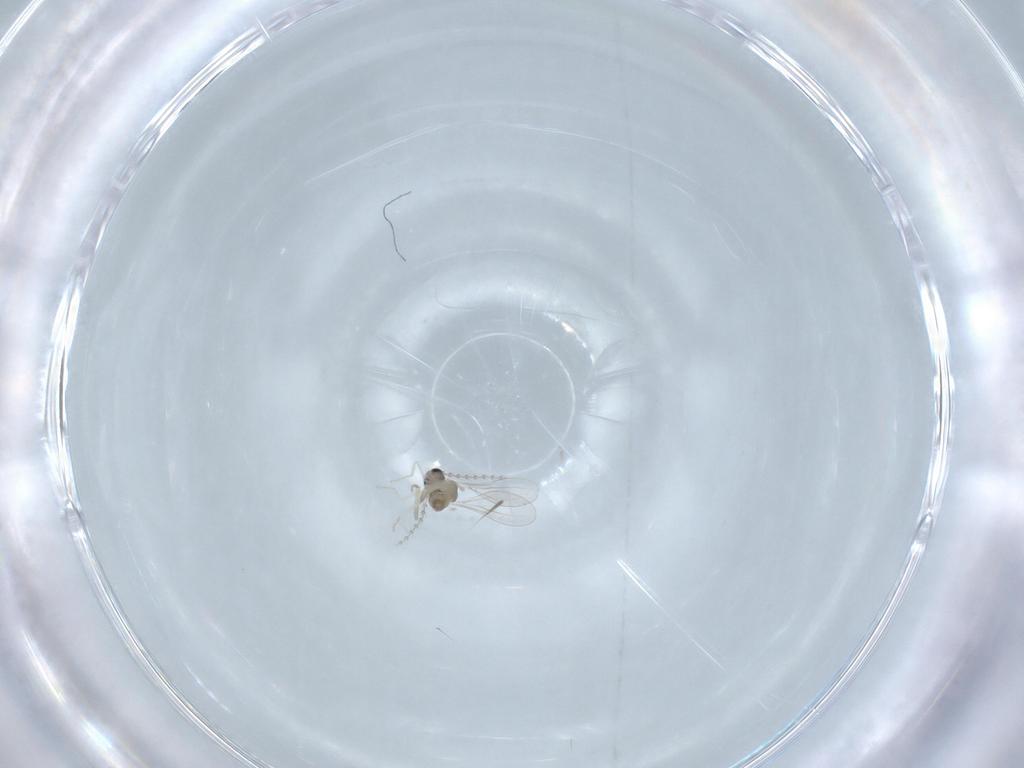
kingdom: Animalia
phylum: Arthropoda
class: Insecta
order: Diptera
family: Cecidomyiidae
